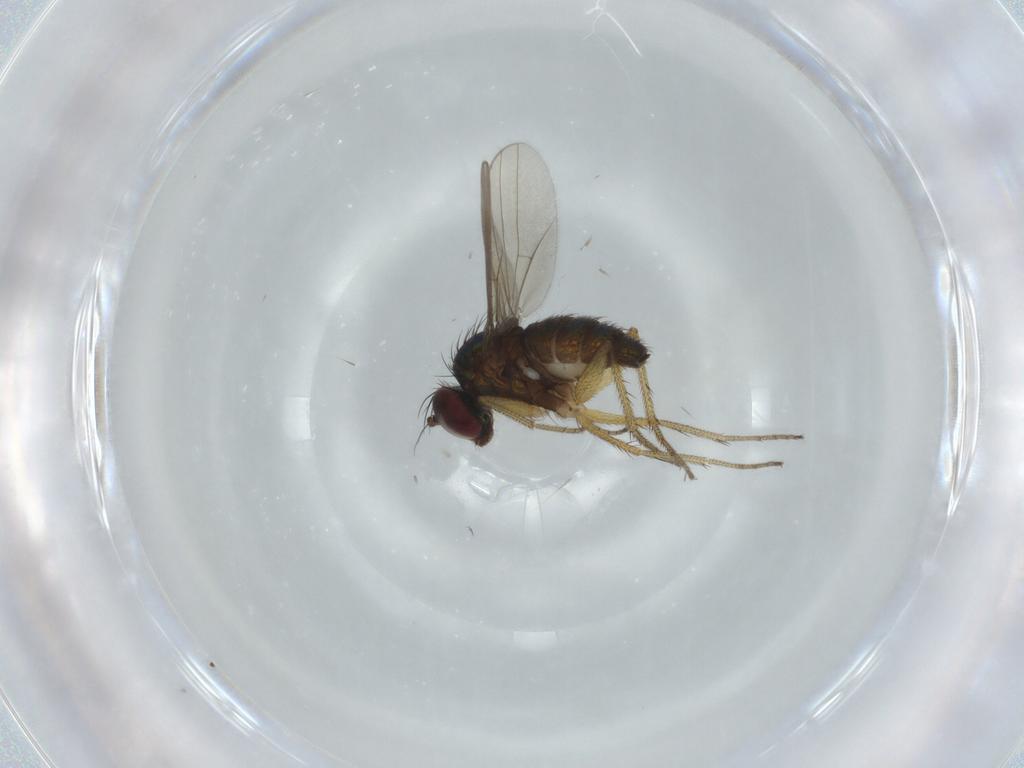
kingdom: Animalia
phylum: Arthropoda
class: Insecta
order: Diptera
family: Dolichopodidae
